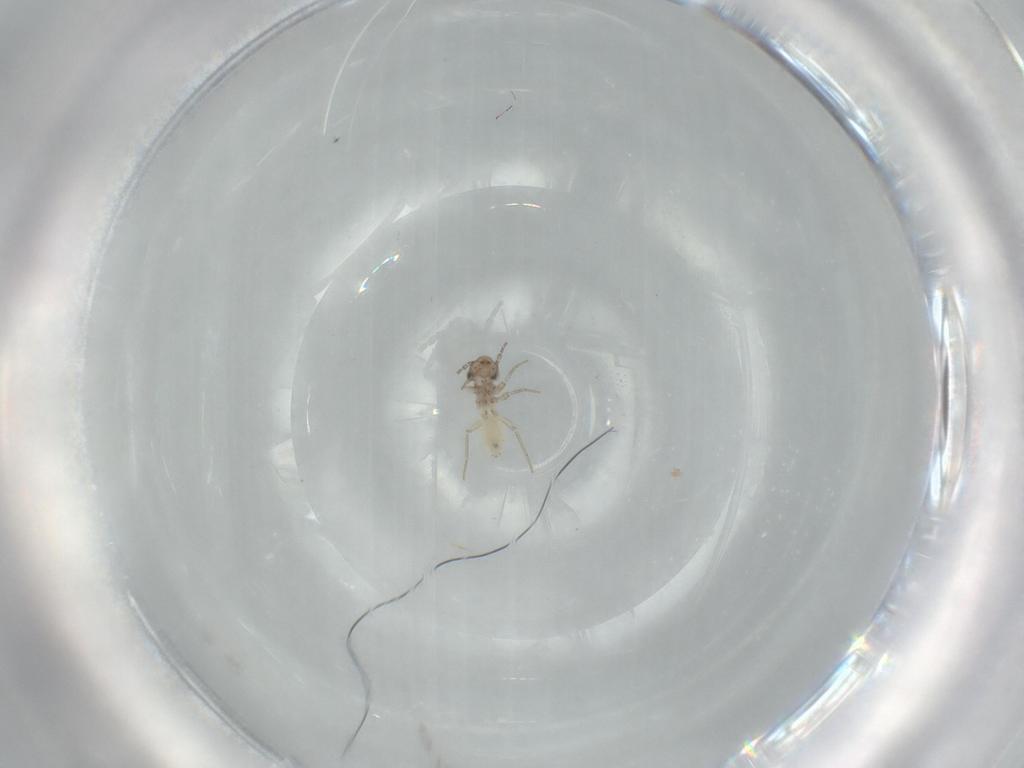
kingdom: Animalia
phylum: Arthropoda
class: Insecta
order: Psocodea
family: Lepidopsocidae
